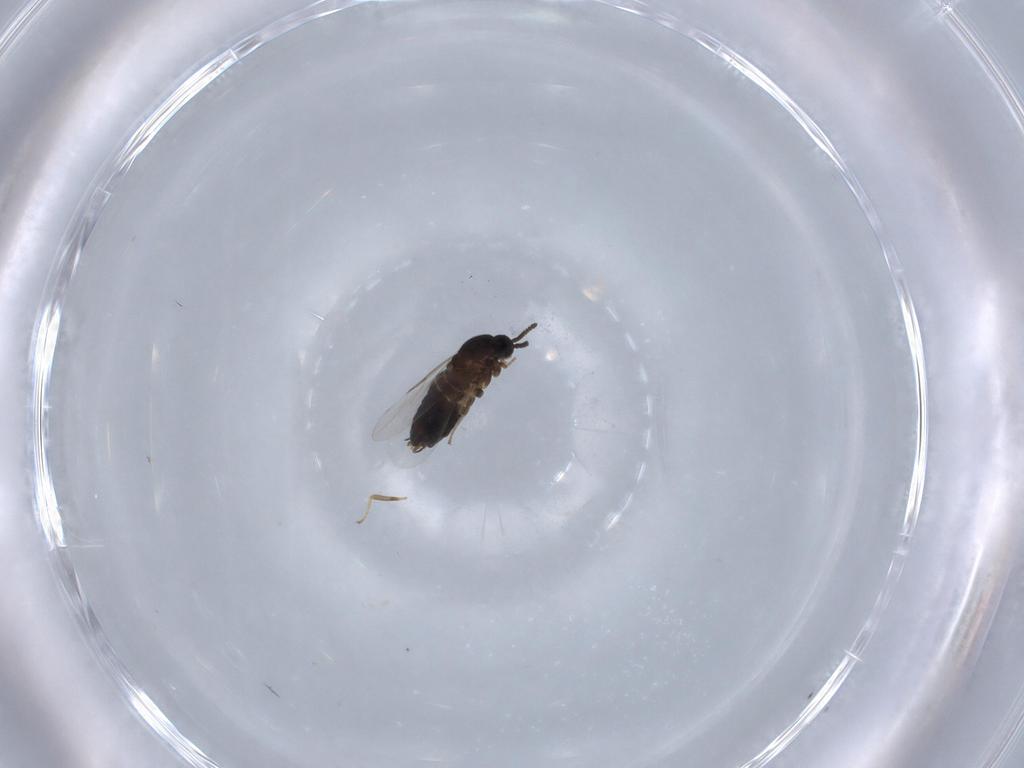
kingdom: Animalia
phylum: Arthropoda
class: Insecta
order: Diptera
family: Scatopsidae
